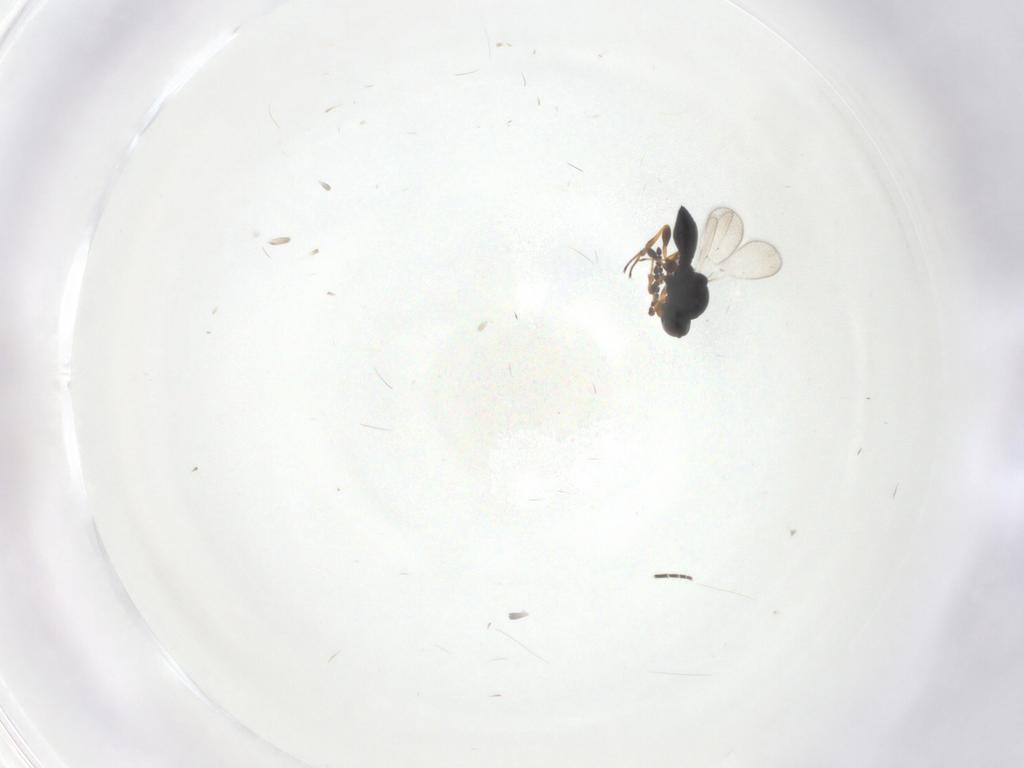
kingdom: Animalia
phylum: Arthropoda
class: Insecta
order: Hymenoptera
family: Platygastridae
